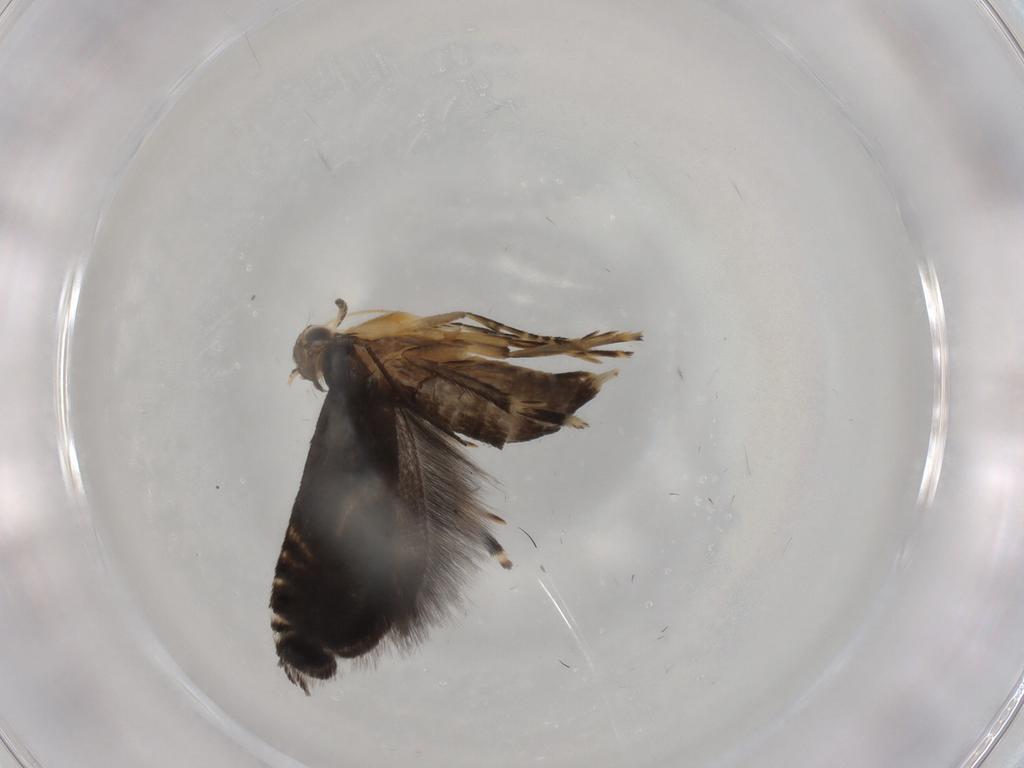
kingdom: Animalia
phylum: Arthropoda
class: Insecta
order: Lepidoptera
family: Glyphipterigidae
